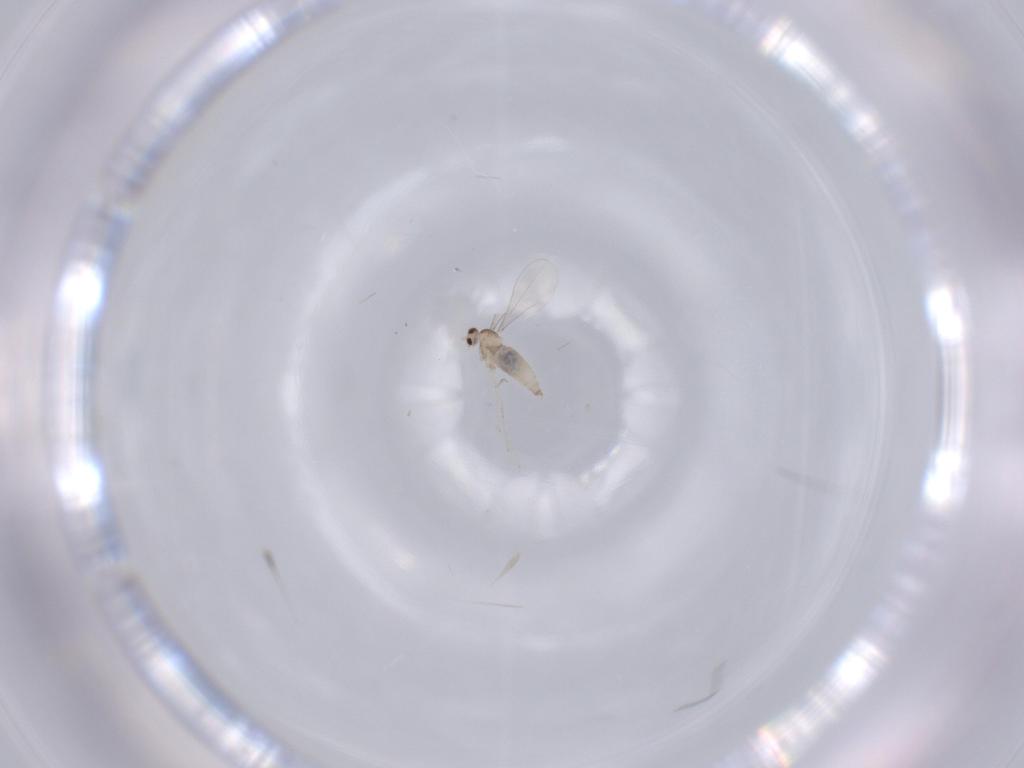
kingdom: Animalia
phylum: Arthropoda
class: Insecta
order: Diptera
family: Cecidomyiidae
